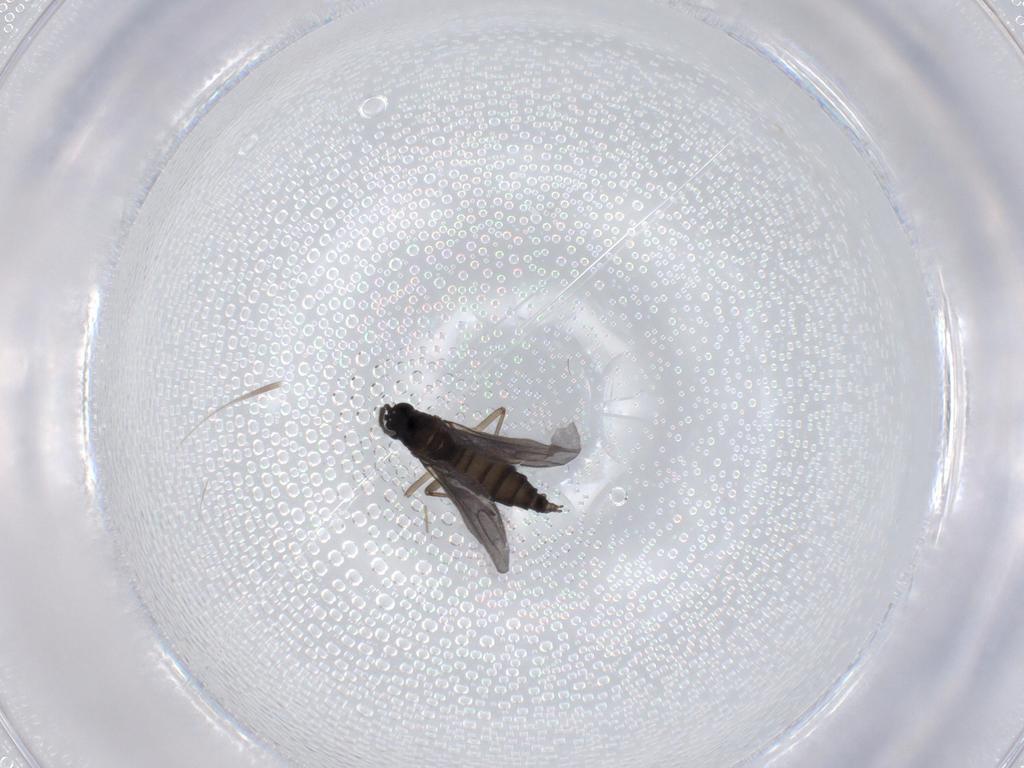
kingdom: Animalia
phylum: Arthropoda
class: Insecta
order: Diptera
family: Sciaridae
